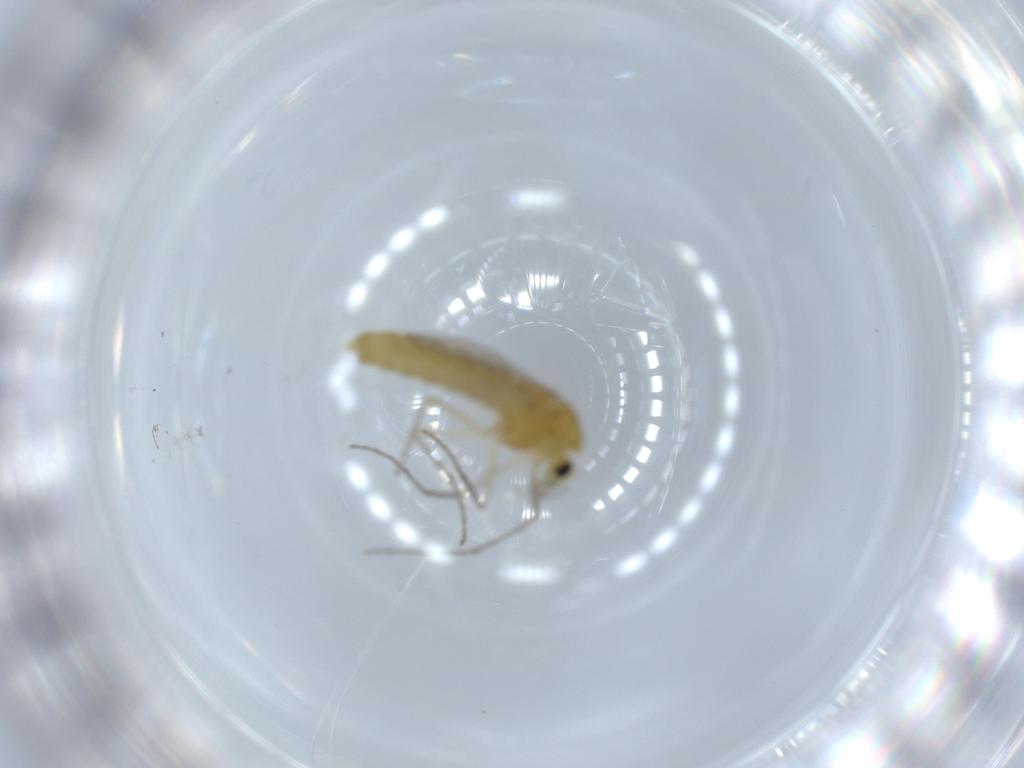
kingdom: Animalia
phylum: Arthropoda
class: Insecta
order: Diptera
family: Chironomidae
